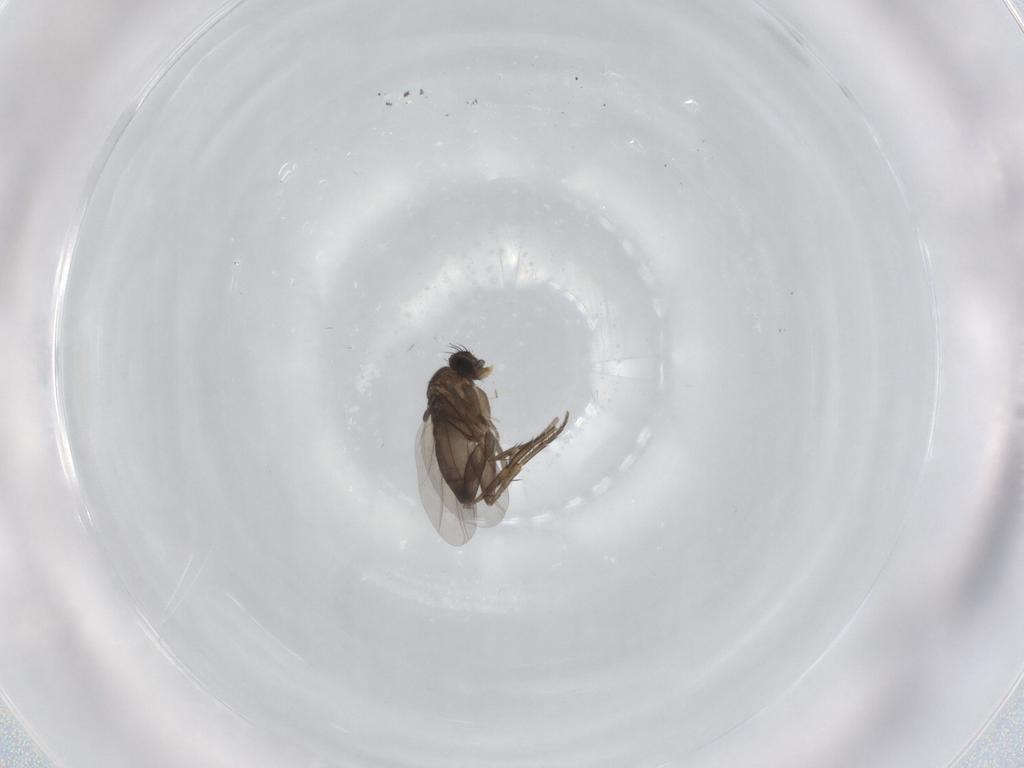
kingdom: Animalia
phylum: Arthropoda
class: Insecta
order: Diptera
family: Phoridae
